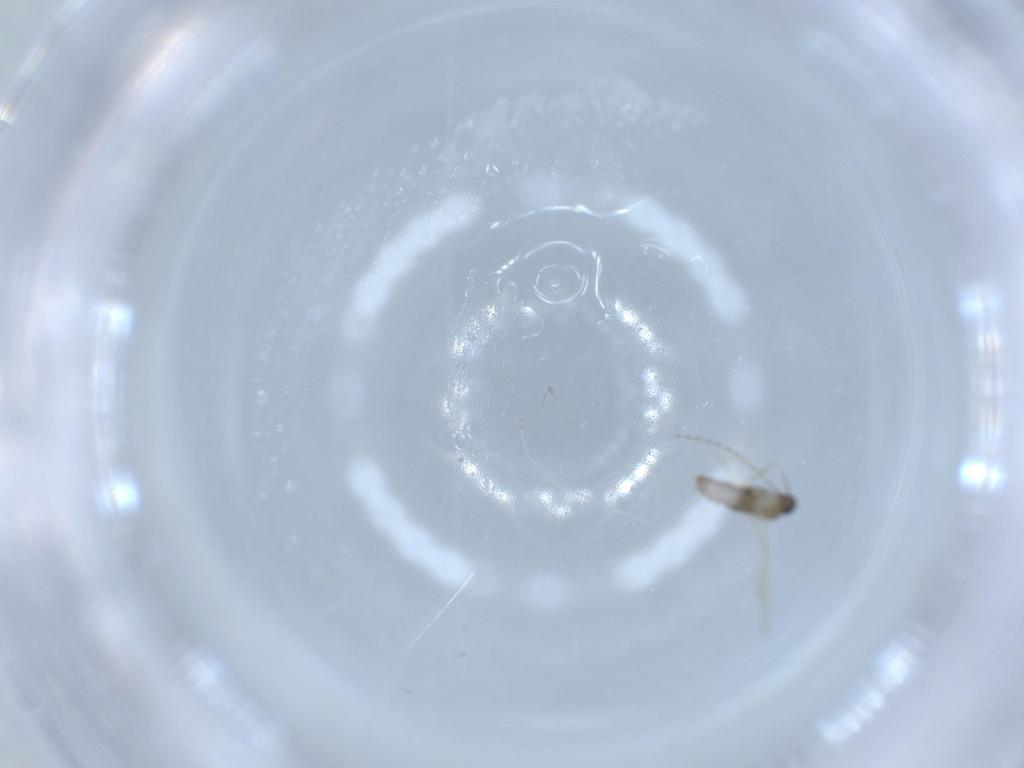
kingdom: Animalia
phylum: Arthropoda
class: Insecta
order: Diptera
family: Cecidomyiidae
